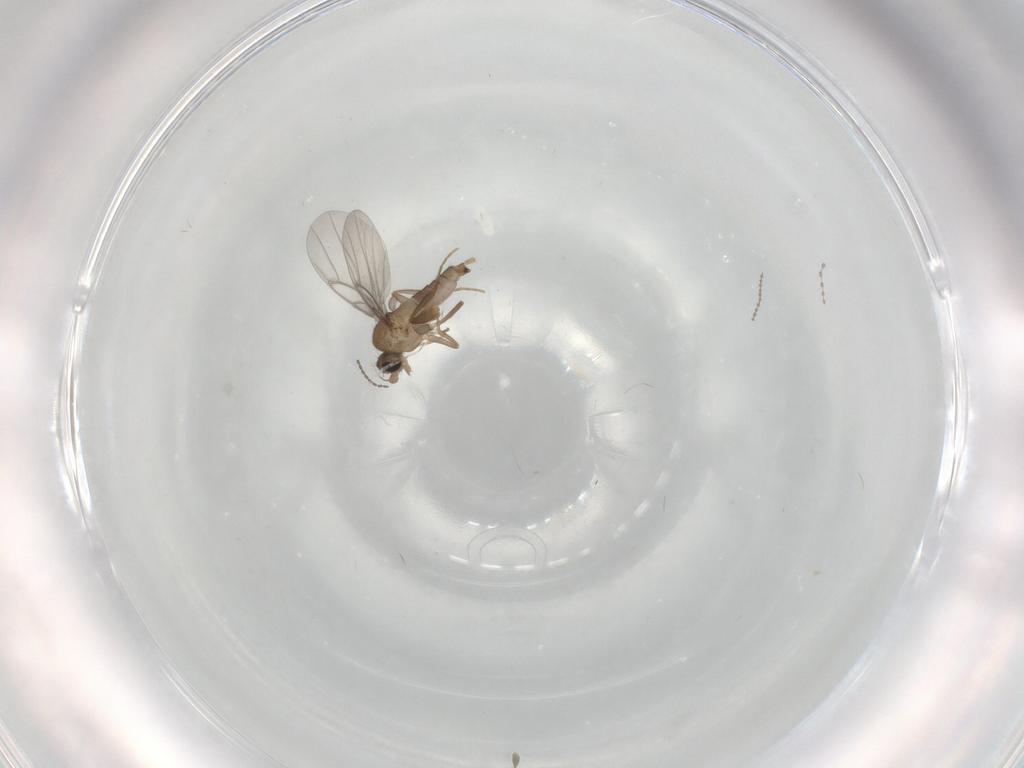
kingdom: Animalia
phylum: Arthropoda
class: Insecta
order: Diptera
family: Cecidomyiidae
